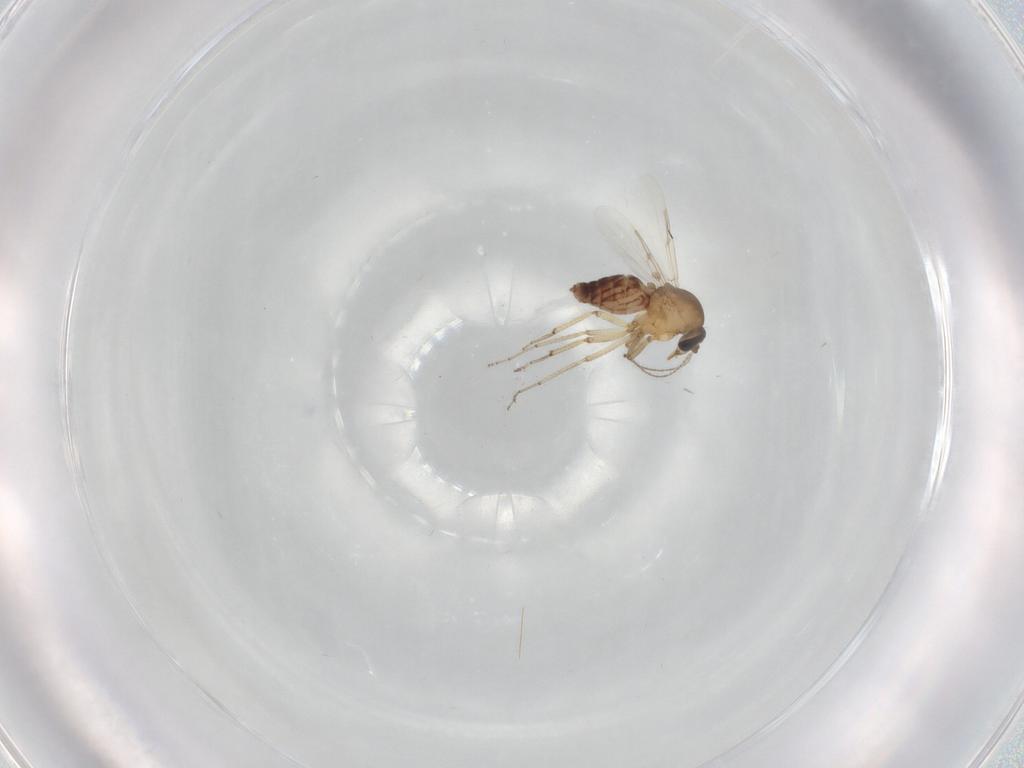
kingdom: Animalia
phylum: Arthropoda
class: Insecta
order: Diptera
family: Ceratopogonidae
